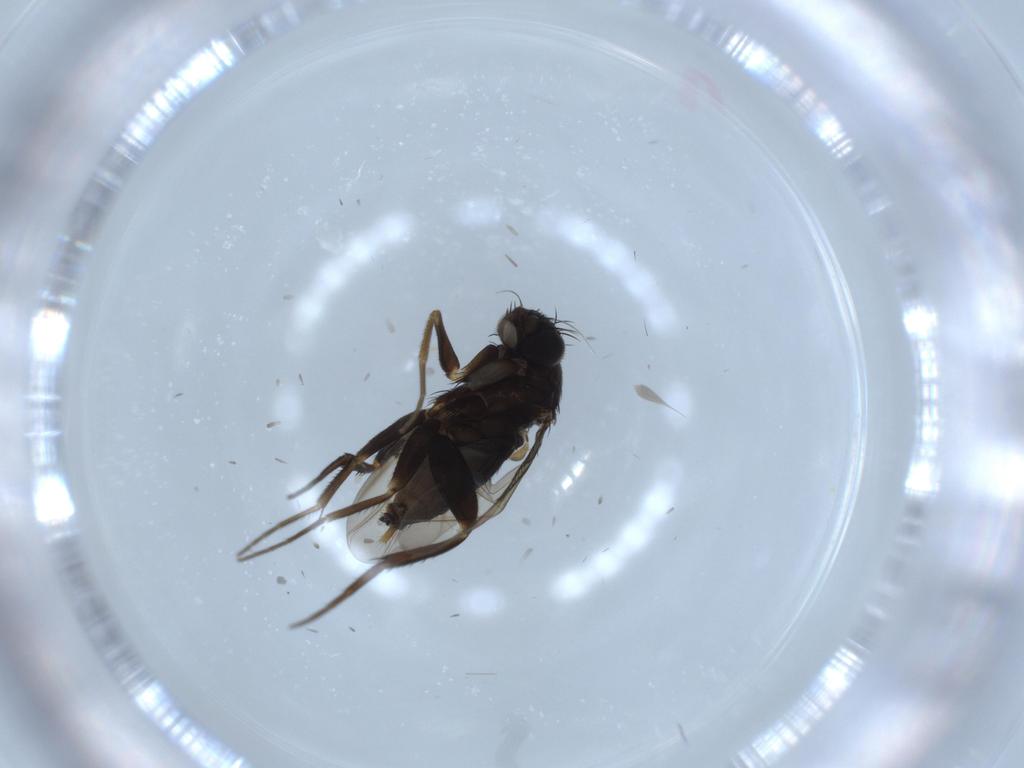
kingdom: Animalia
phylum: Arthropoda
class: Insecta
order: Diptera
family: Phoridae
